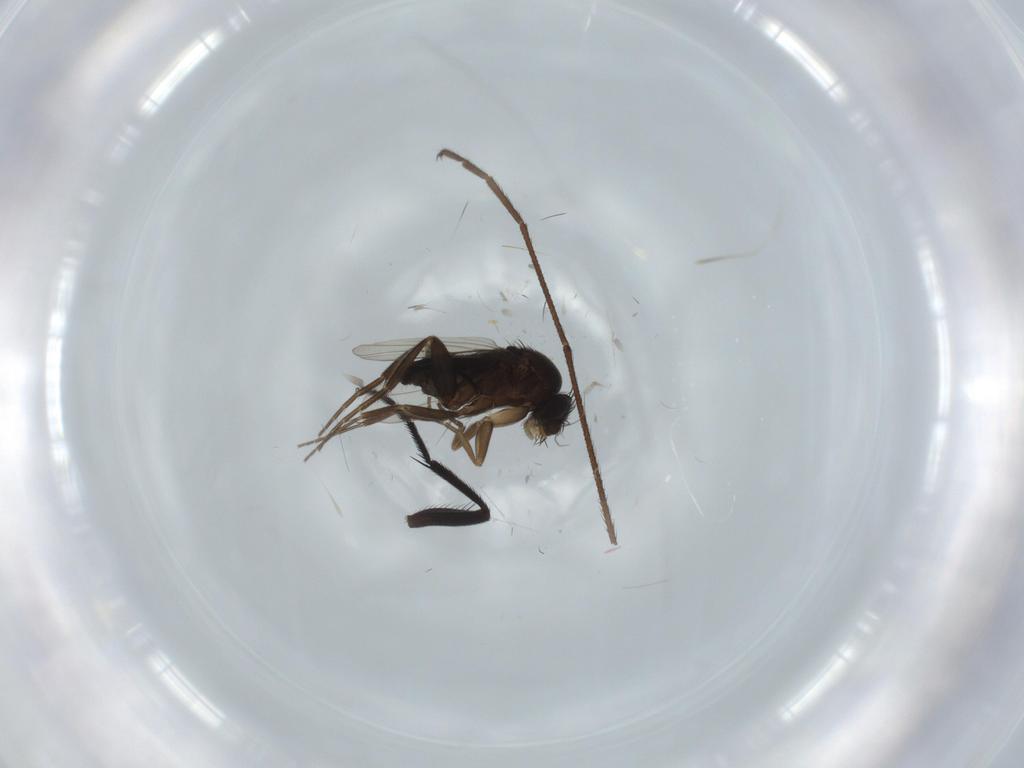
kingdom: Animalia
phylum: Arthropoda
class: Insecta
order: Diptera
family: Phoridae
